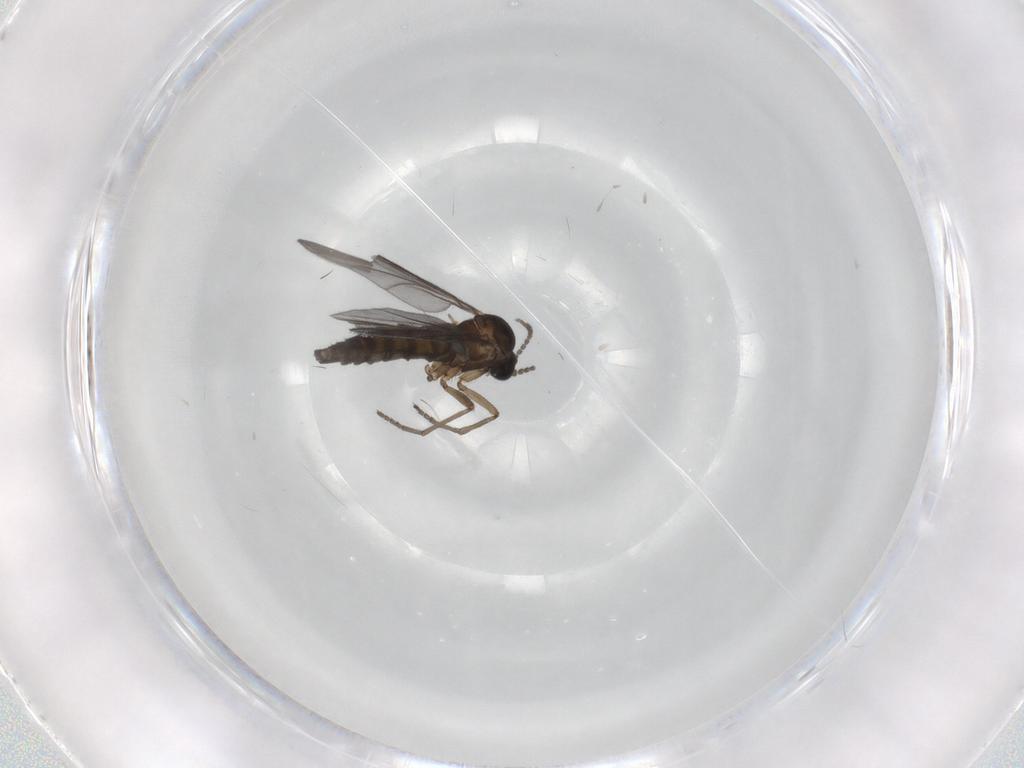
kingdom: Animalia
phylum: Arthropoda
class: Insecta
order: Diptera
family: Sciaridae
